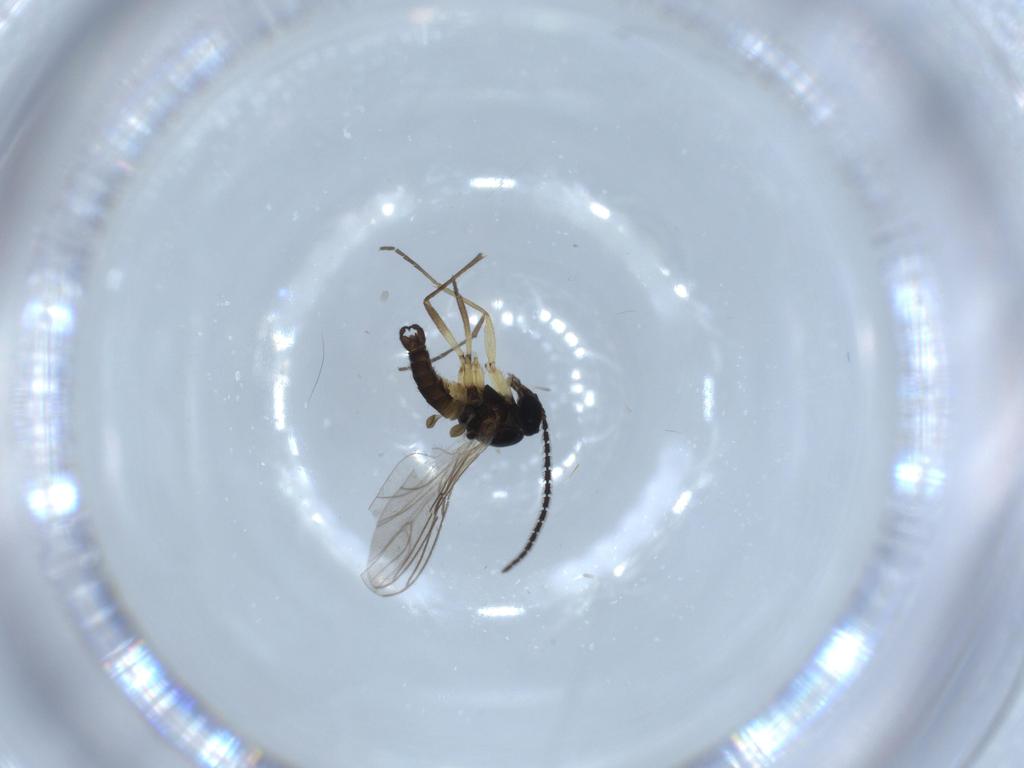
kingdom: Animalia
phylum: Arthropoda
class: Insecta
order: Diptera
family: Sciaridae
